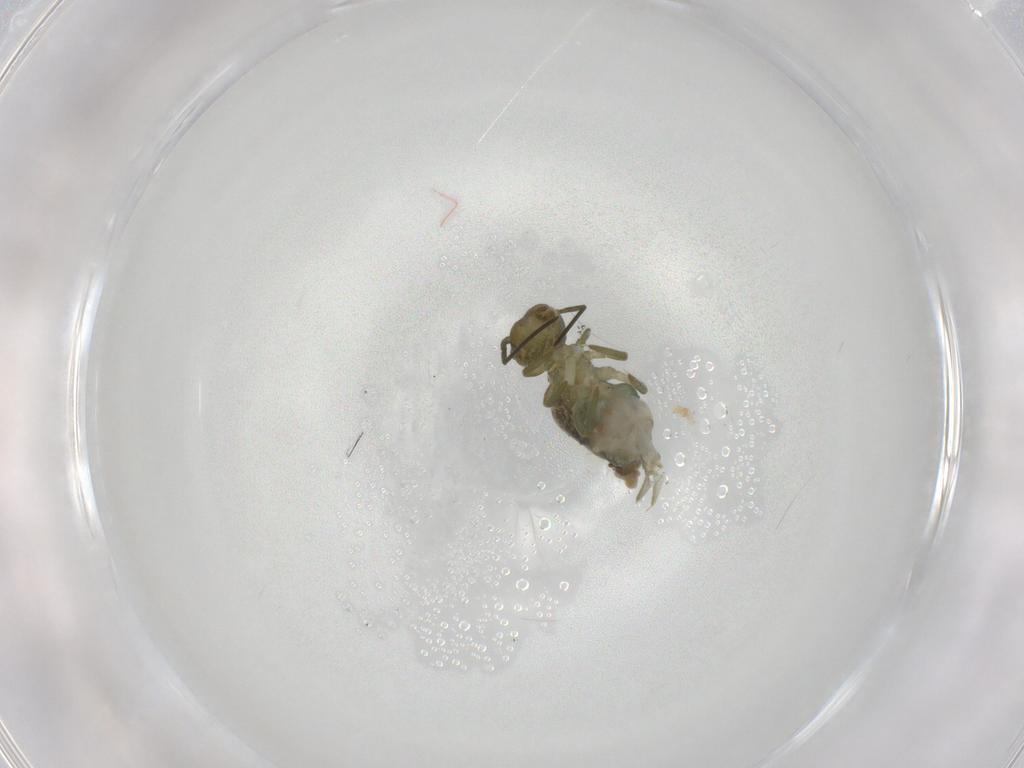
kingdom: Animalia
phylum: Arthropoda
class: Collembola
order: Symphypleona
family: Sminthuridae
